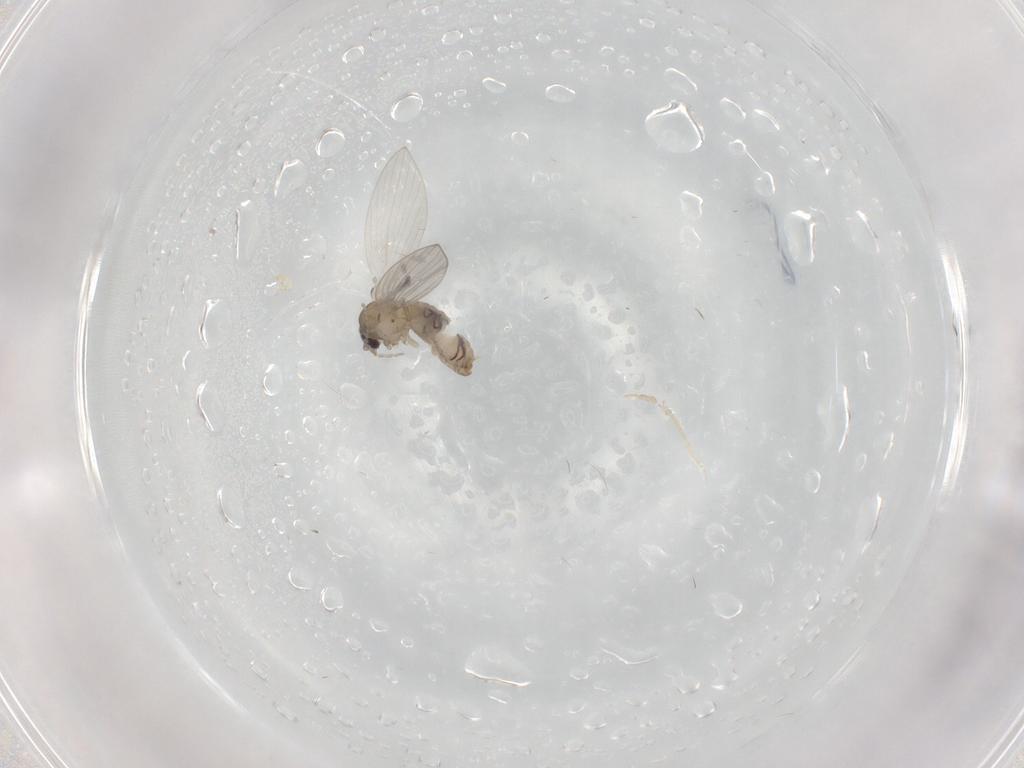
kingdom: Animalia
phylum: Arthropoda
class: Insecta
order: Diptera
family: Psychodidae
